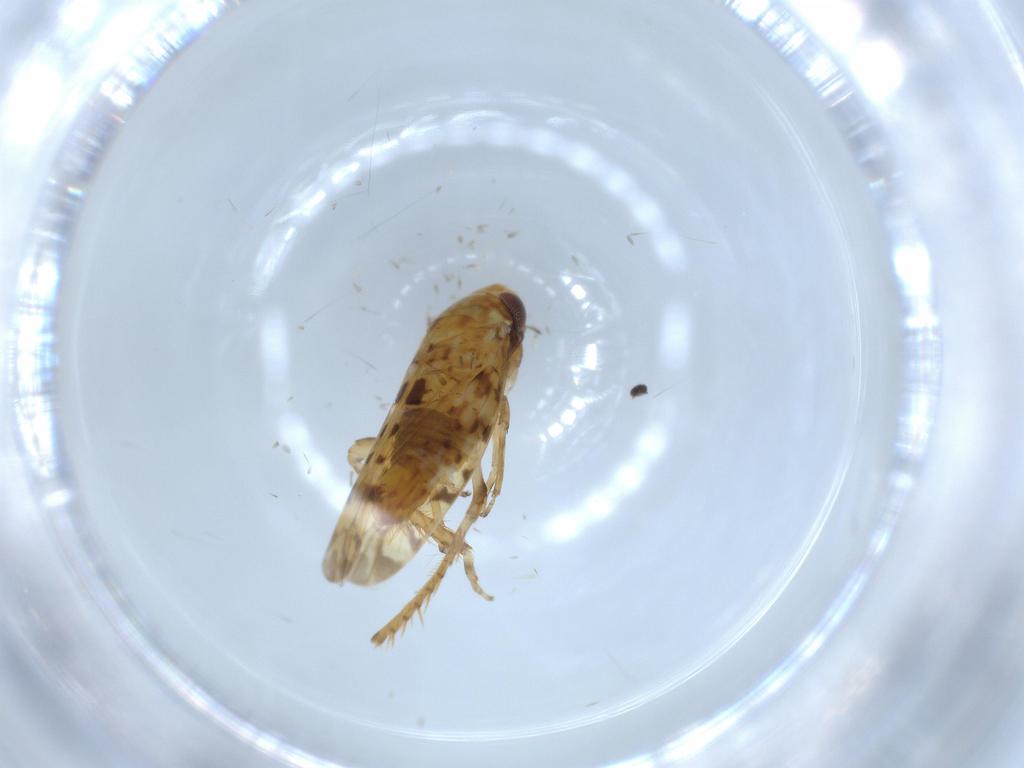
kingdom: Animalia
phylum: Arthropoda
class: Insecta
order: Hemiptera
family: Cicadellidae
